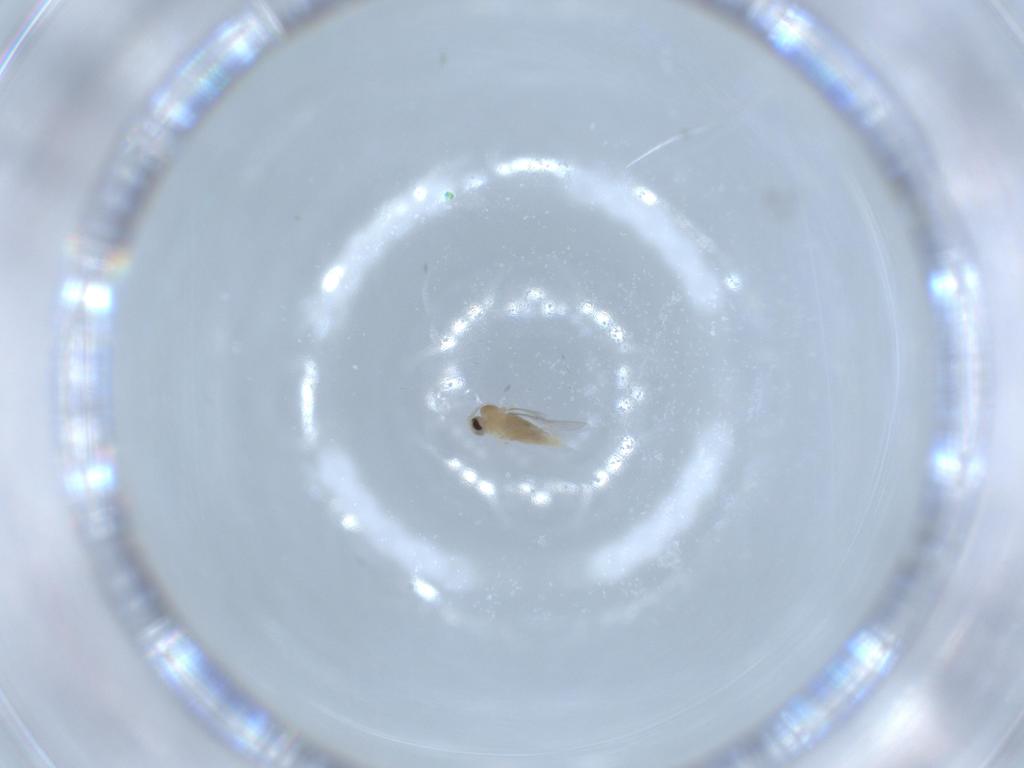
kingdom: Animalia
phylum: Arthropoda
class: Insecta
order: Diptera
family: Cecidomyiidae
